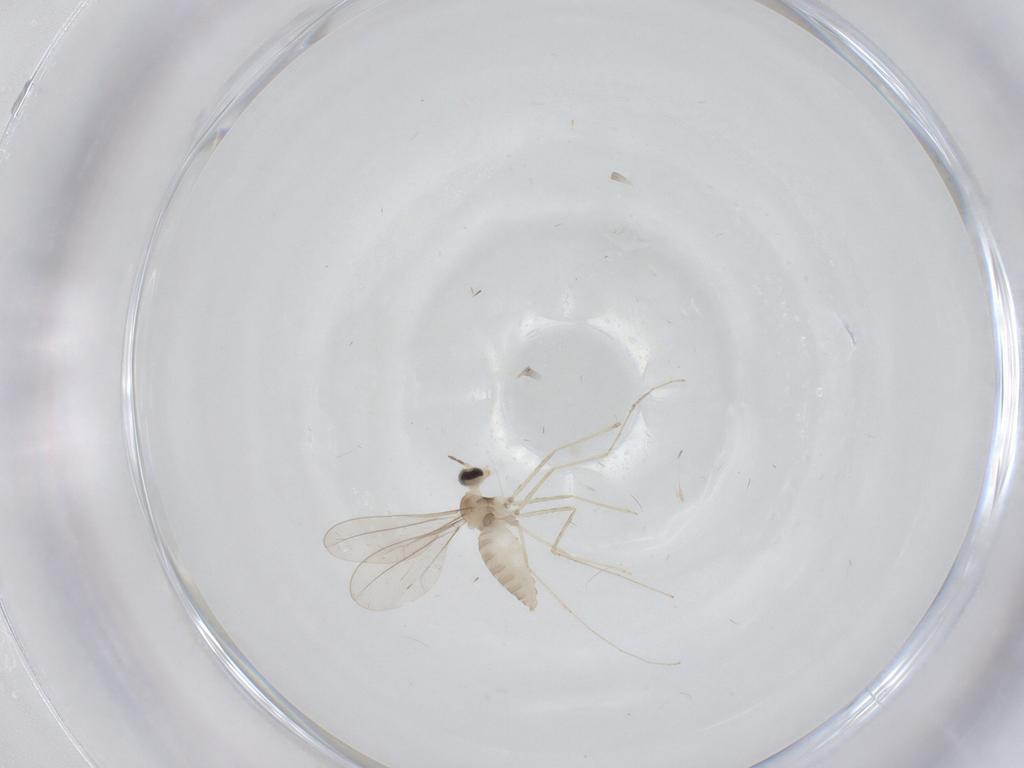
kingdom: Animalia
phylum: Arthropoda
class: Insecta
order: Diptera
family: Cecidomyiidae
